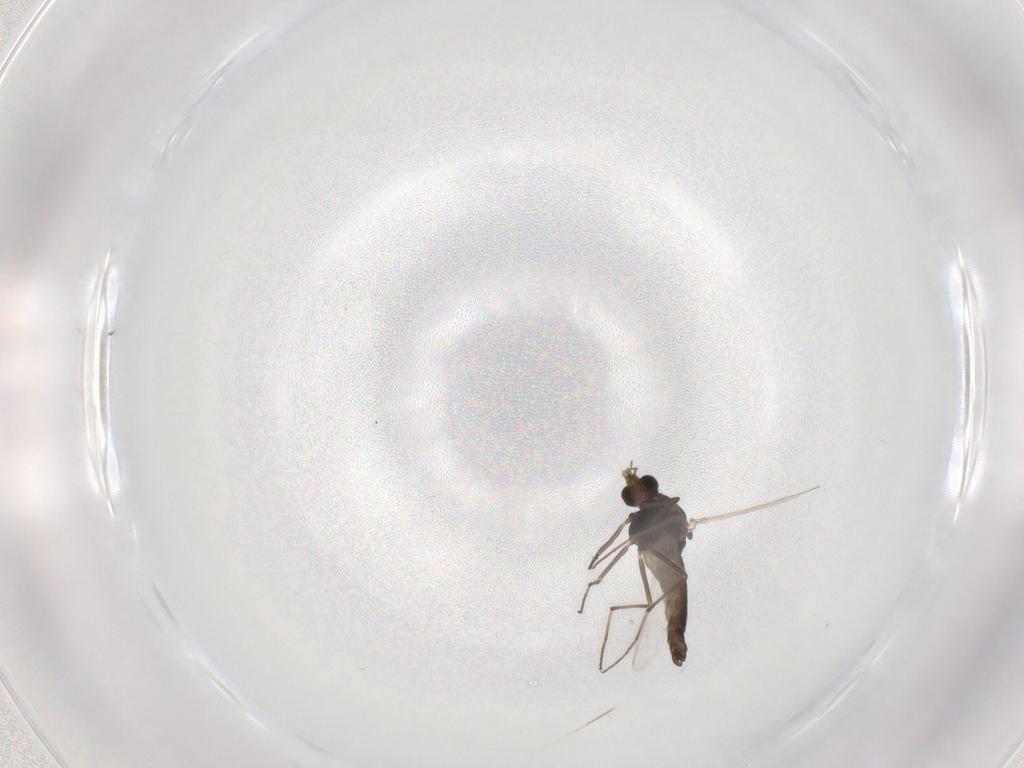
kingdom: Animalia
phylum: Arthropoda
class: Insecta
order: Diptera
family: Chironomidae
